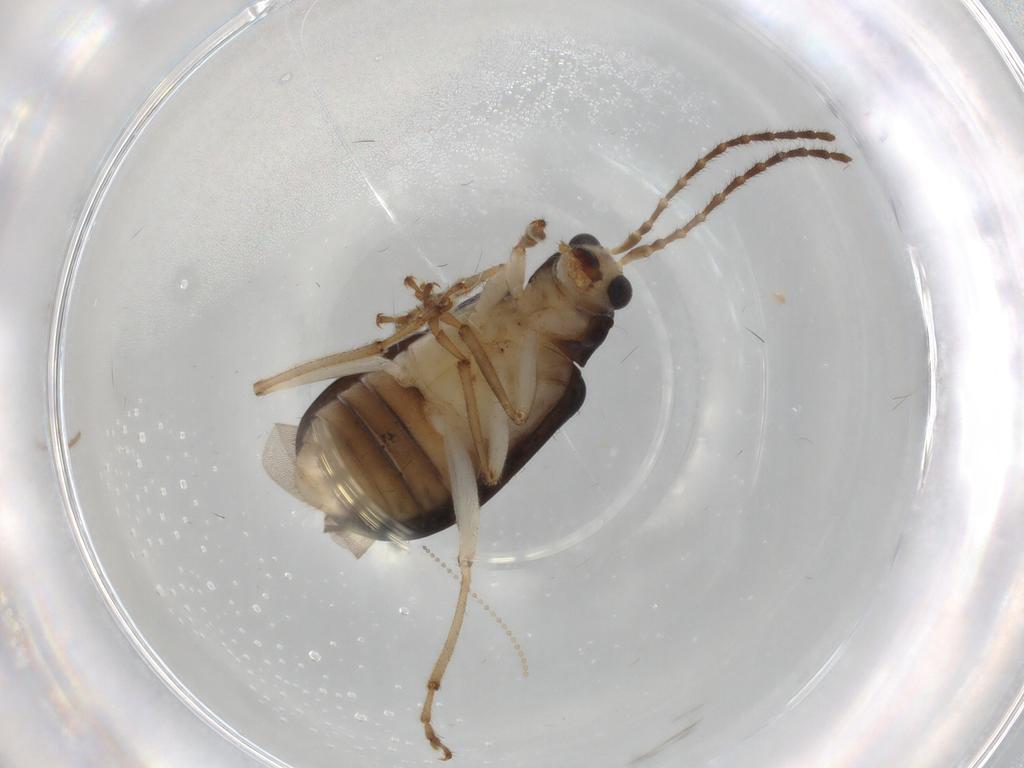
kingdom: Animalia
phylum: Arthropoda
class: Insecta
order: Coleoptera
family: Chrysomelidae
